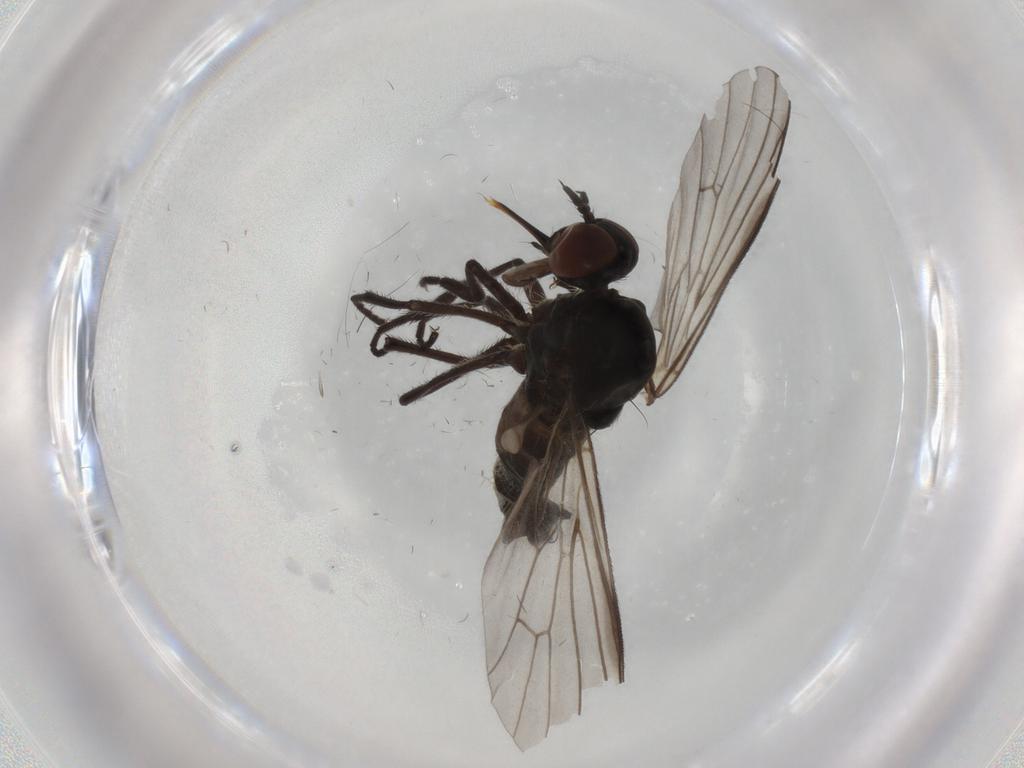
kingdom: Animalia
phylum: Arthropoda
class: Insecta
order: Diptera
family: Empididae
